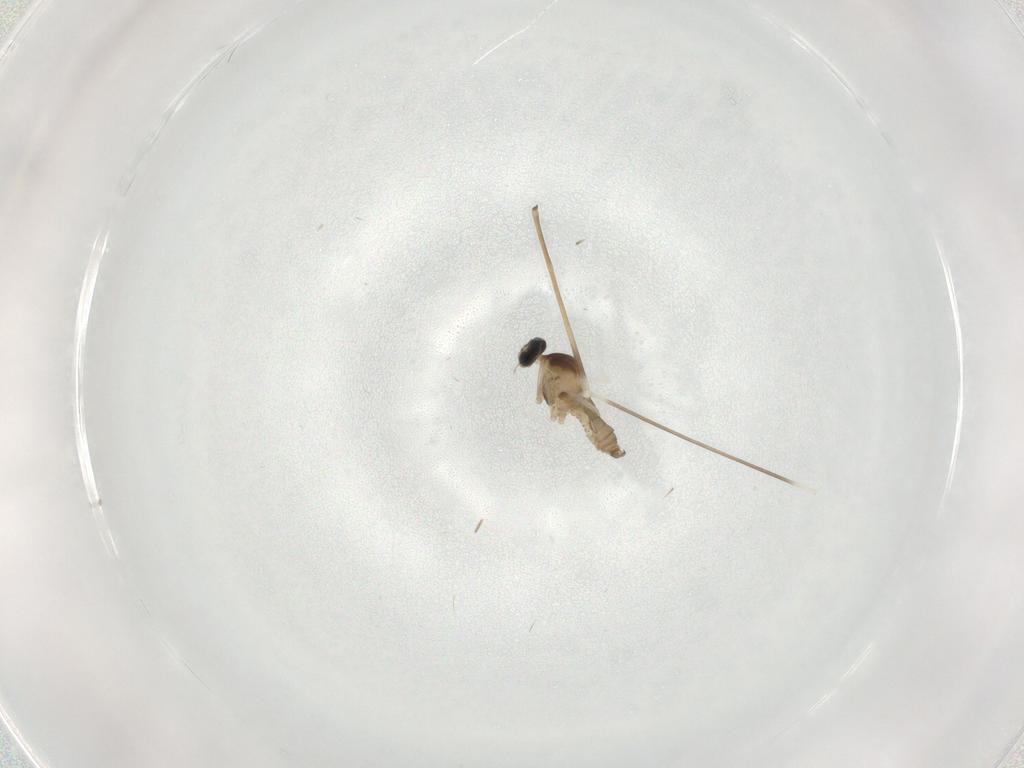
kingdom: Animalia
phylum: Arthropoda
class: Insecta
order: Diptera
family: Cecidomyiidae
